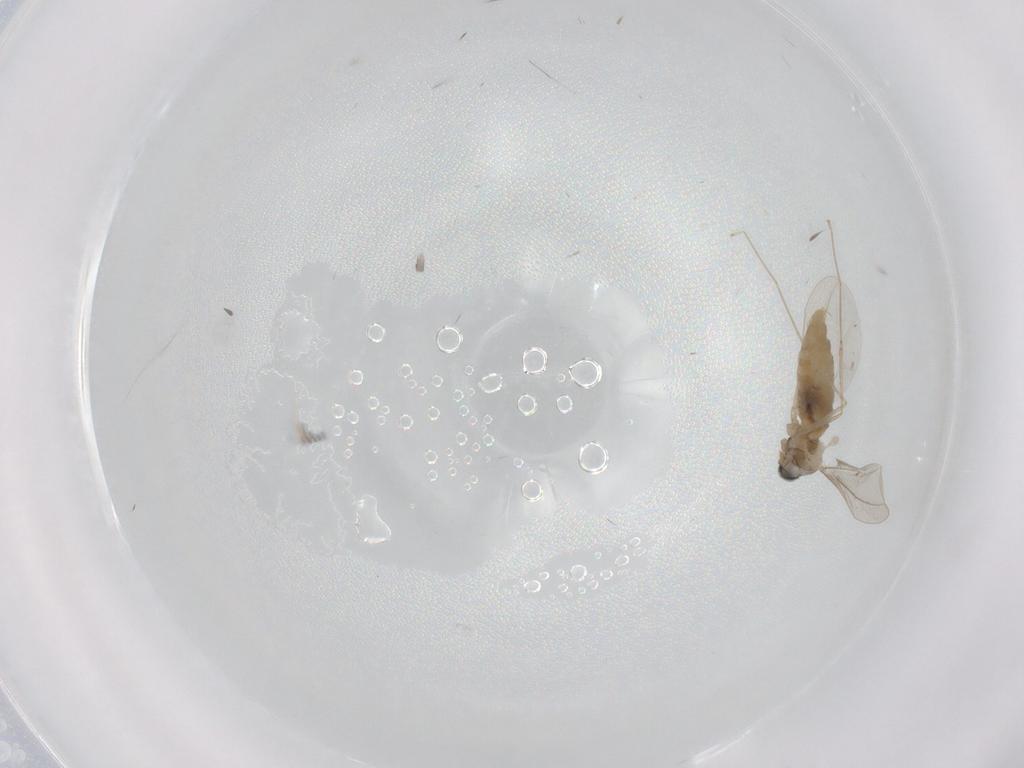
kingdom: Animalia
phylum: Arthropoda
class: Insecta
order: Diptera
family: Cecidomyiidae
